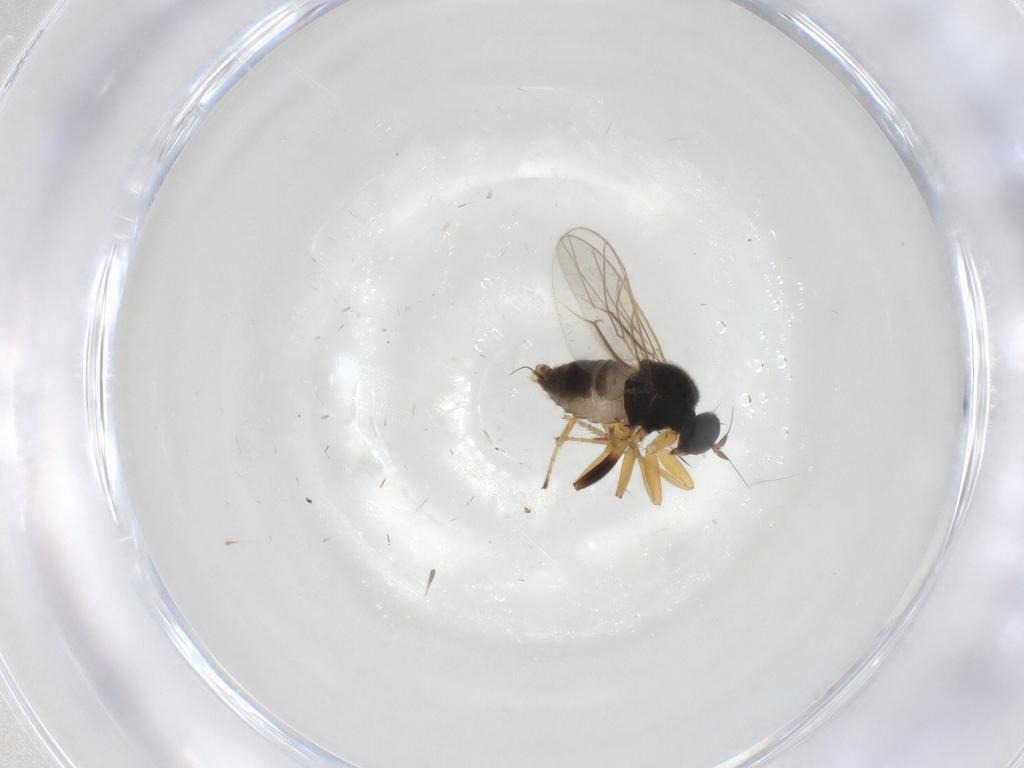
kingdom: Animalia
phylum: Arthropoda
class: Insecta
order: Diptera
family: Hybotidae
